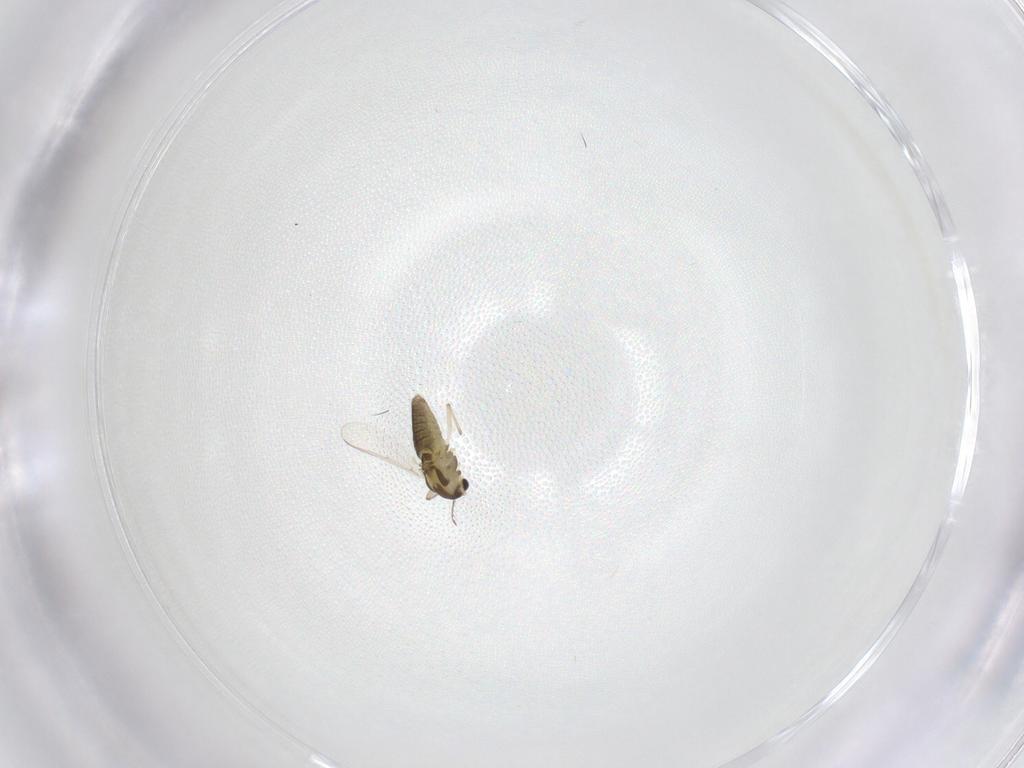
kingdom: Animalia
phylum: Arthropoda
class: Insecta
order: Diptera
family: Chironomidae
